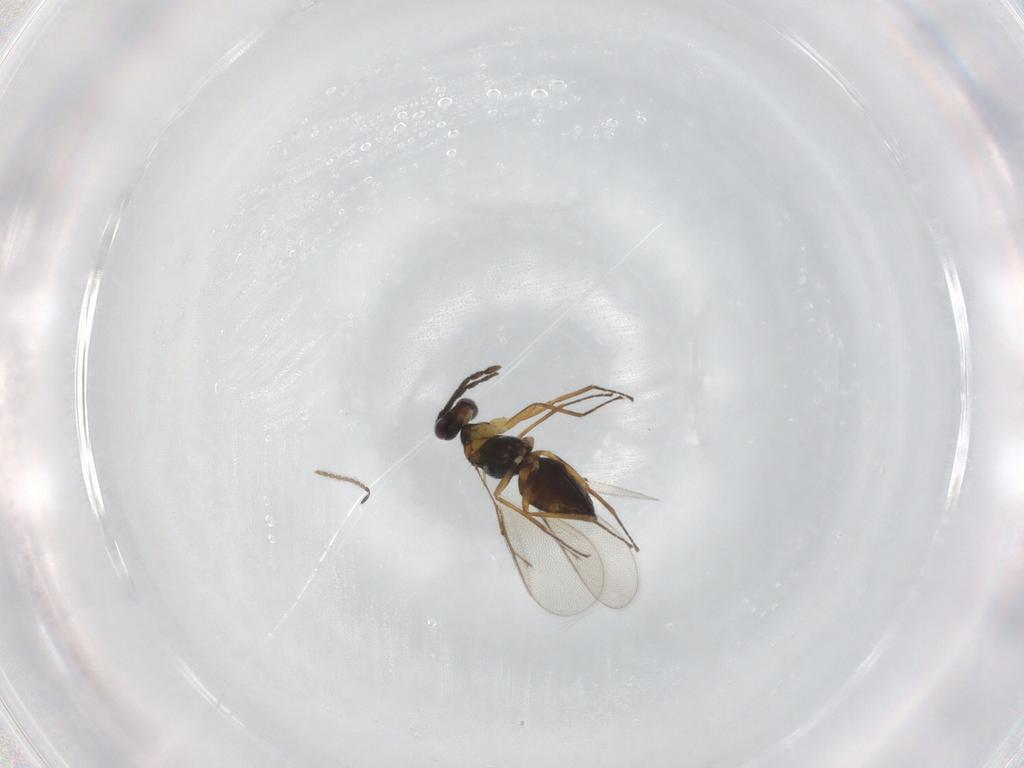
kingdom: Animalia
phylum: Arthropoda
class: Insecta
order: Hymenoptera
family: Eulophidae
